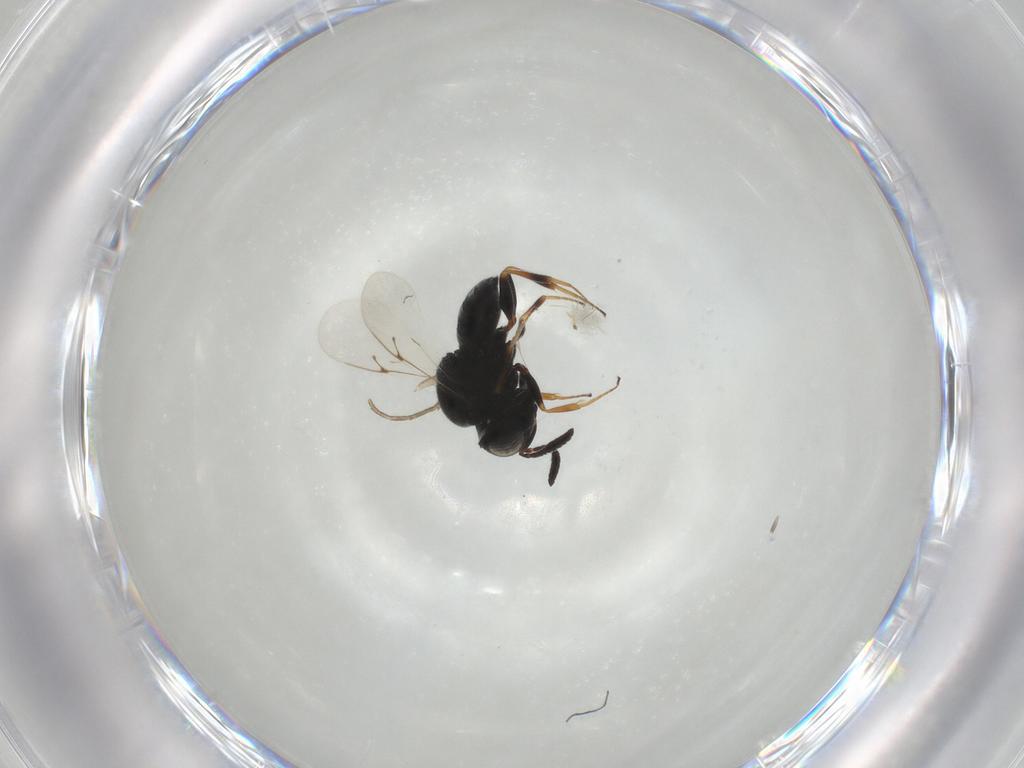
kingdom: Animalia
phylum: Arthropoda
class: Insecta
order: Hymenoptera
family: Scelionidae
